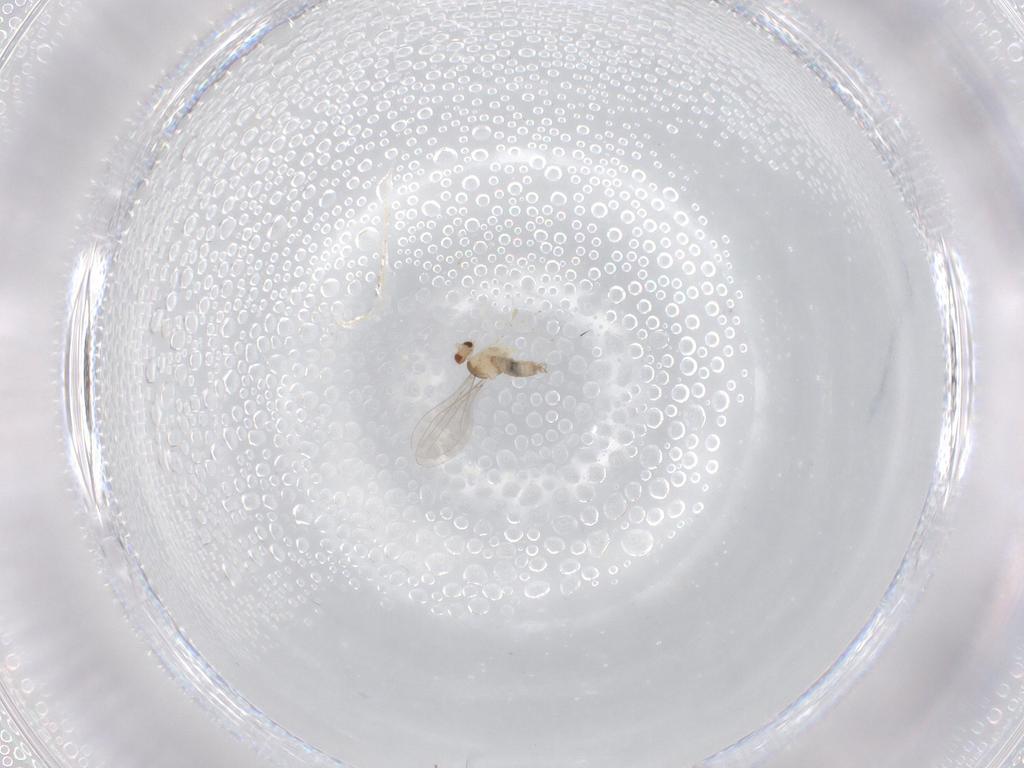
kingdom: Animalia
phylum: Arthropoda
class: Insecta
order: Diptera
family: Cecidomyiidae
